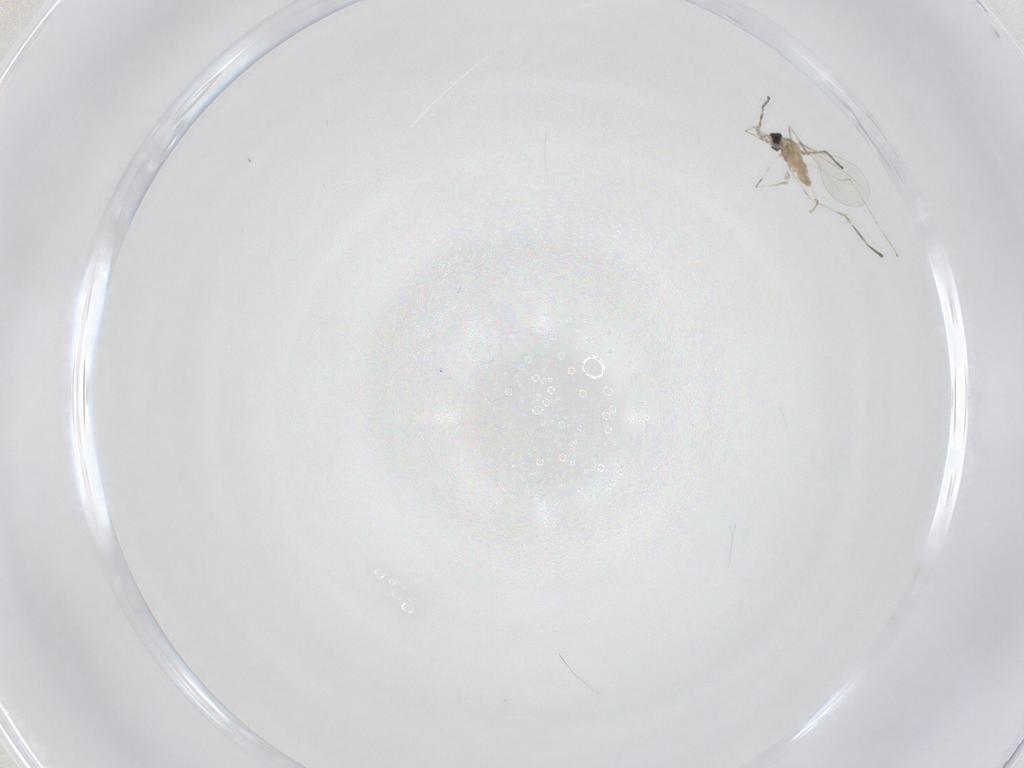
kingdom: Animalia
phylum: Arthropoda
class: Insecta
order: Diptera
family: Cecidomyiidae
